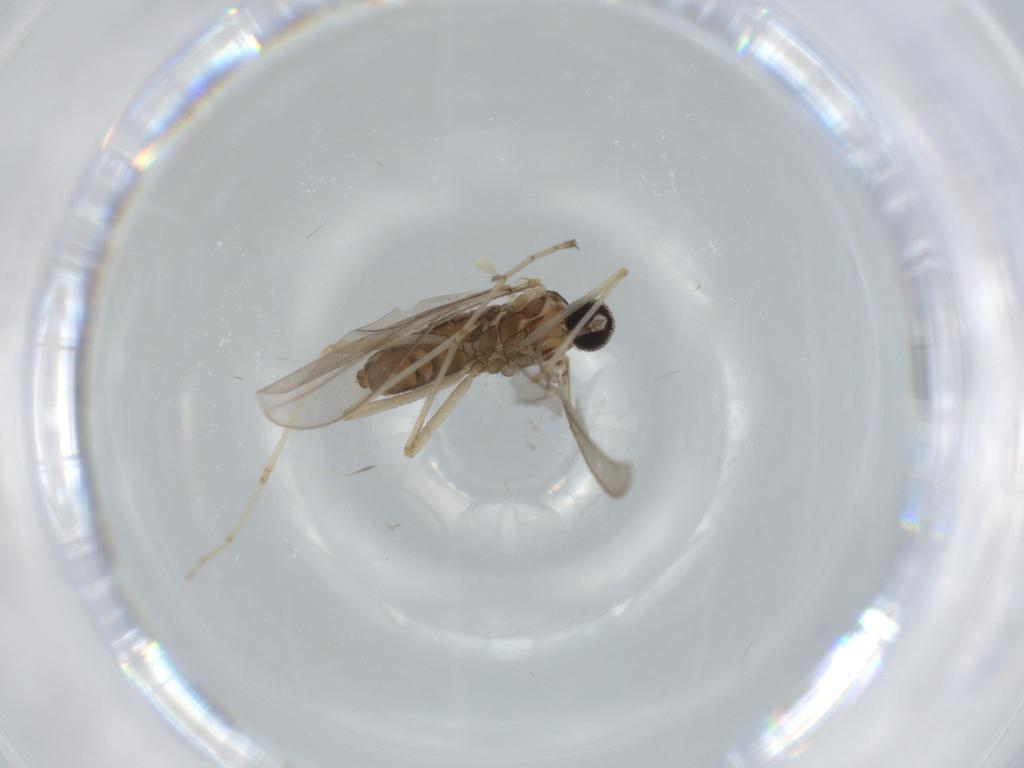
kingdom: Animalia
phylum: Arthropoda
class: Insecta
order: Diptera
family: Cecidomyiidae
